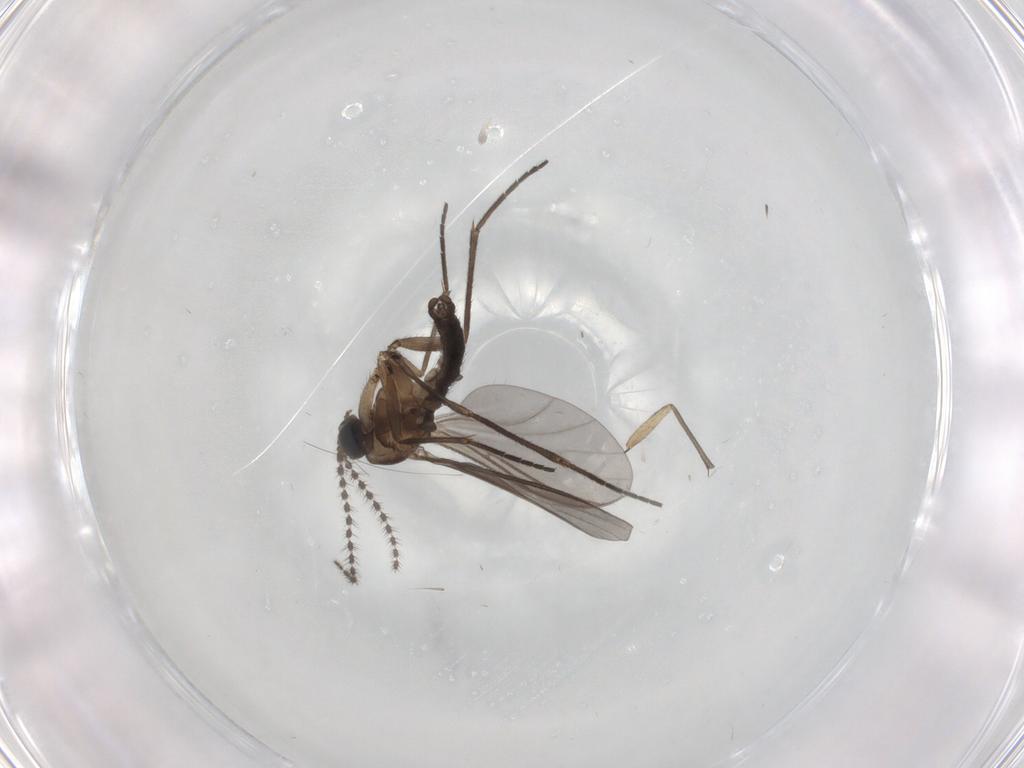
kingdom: Animalia
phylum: Arthropoda
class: Insecta
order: Diptera
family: Sciaridae
